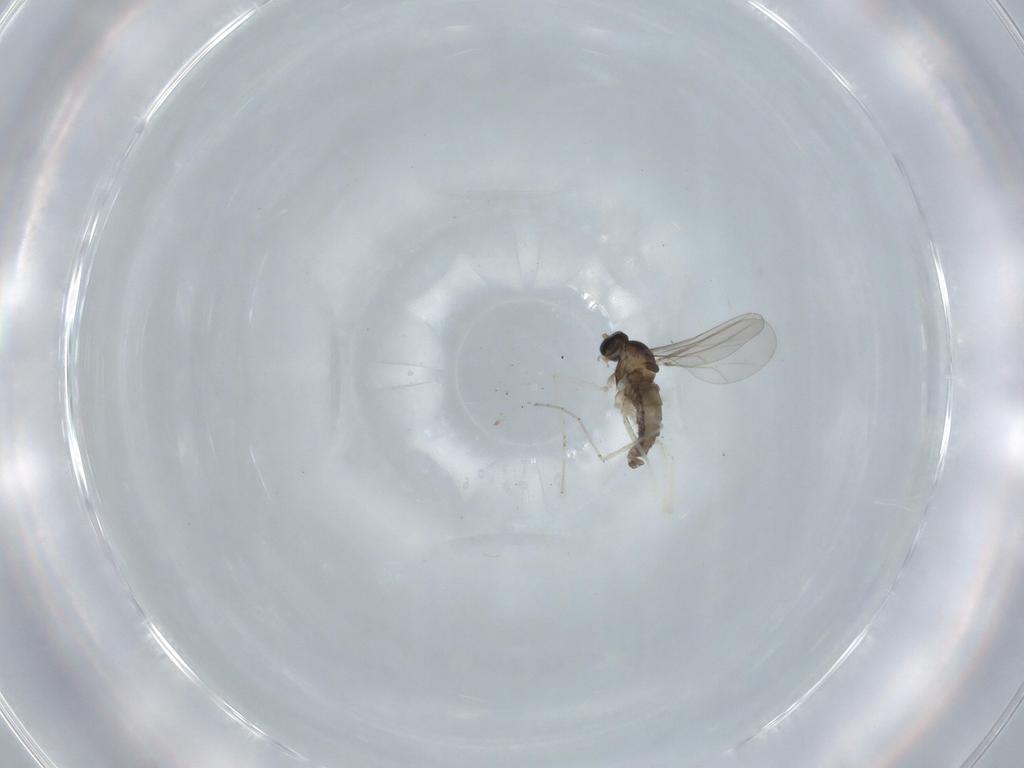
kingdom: Animalia
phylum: Arthropoda
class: Insecta
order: Diptera
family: Cecidomyiidae
